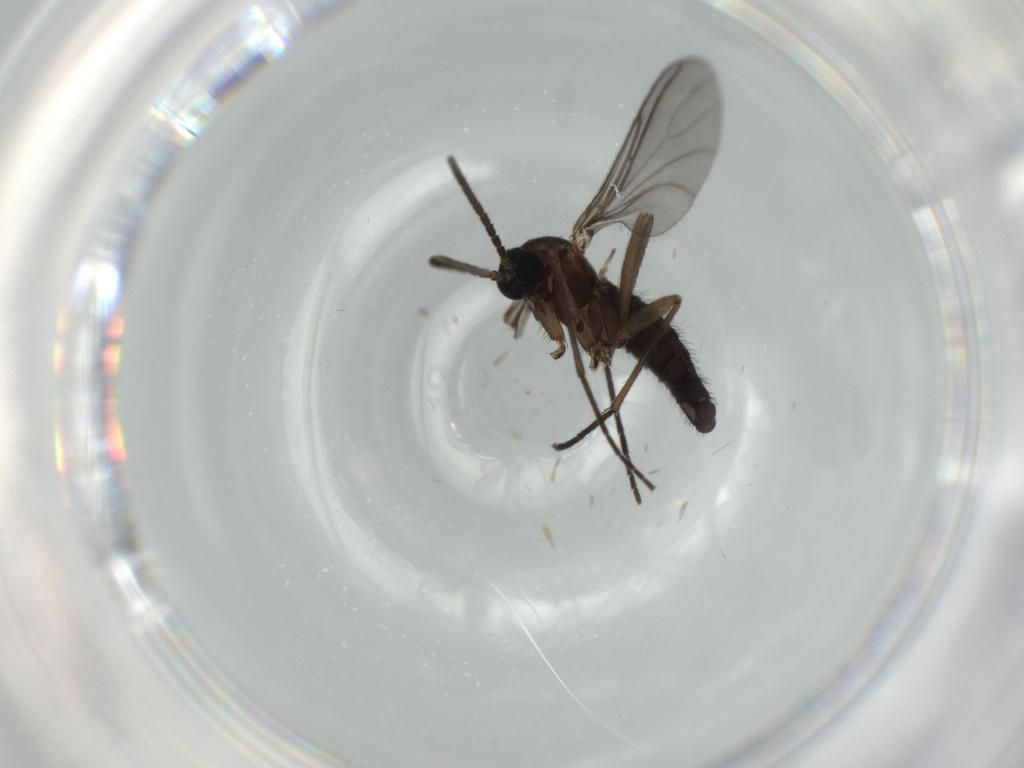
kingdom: Animalia
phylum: Arthropoda
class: Insecta
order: Diptera
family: Sciaridae
